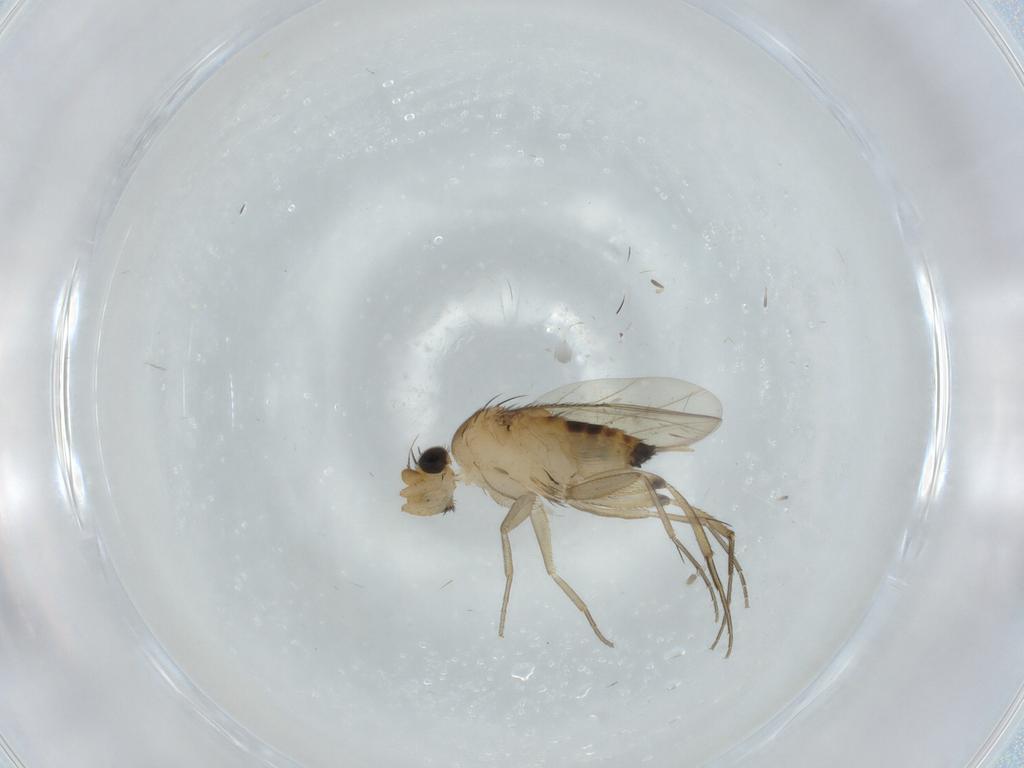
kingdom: Animalia
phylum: Arthropoda
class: Insecta
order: Diptera
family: Phoridae
